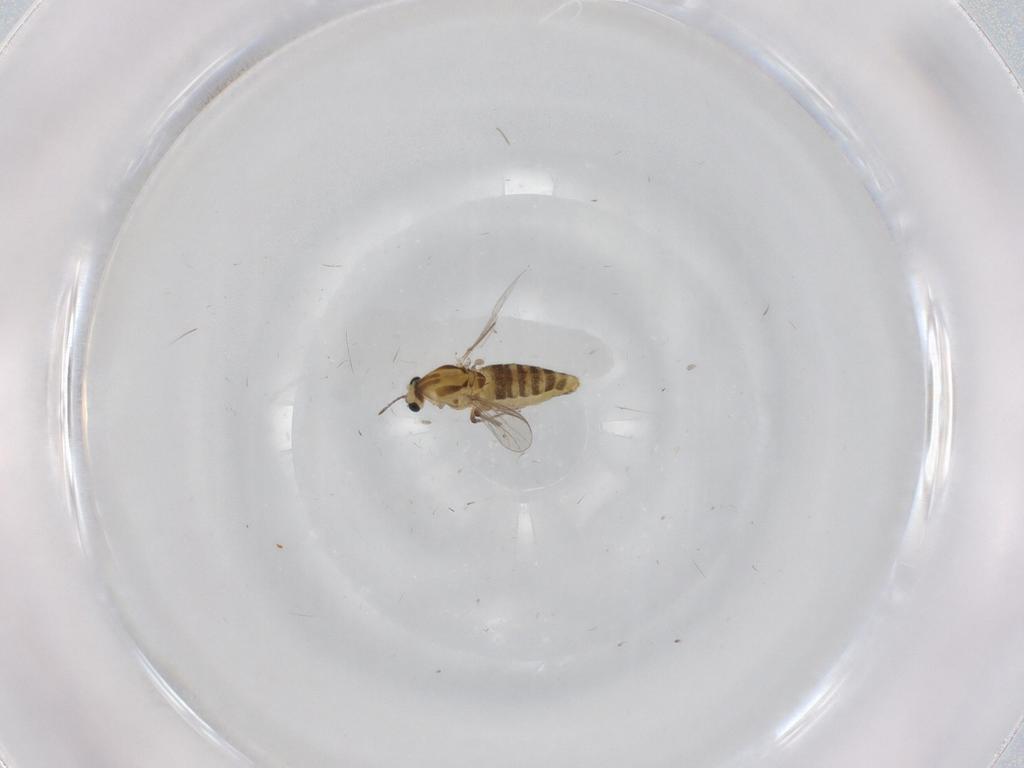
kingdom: Animalia
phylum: Arthropoda
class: Insecta
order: Diptera
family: Chironomidae
